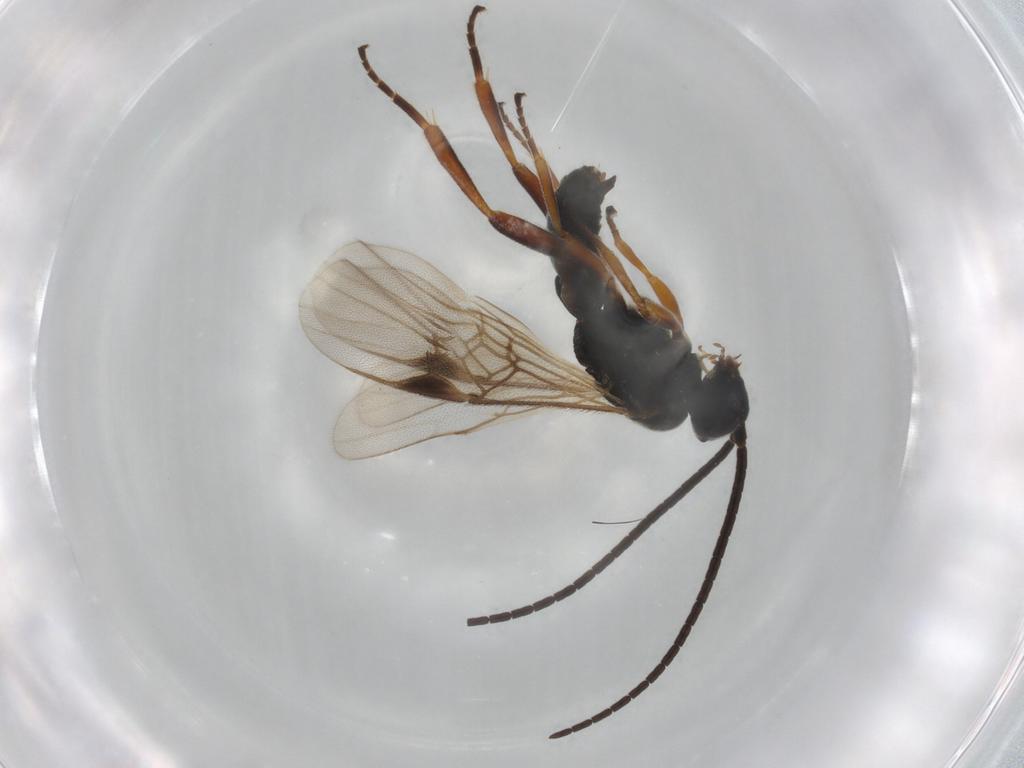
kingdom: Animalia
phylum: Arthropoda
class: Insecta
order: Hymenoptera
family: Braconidae
